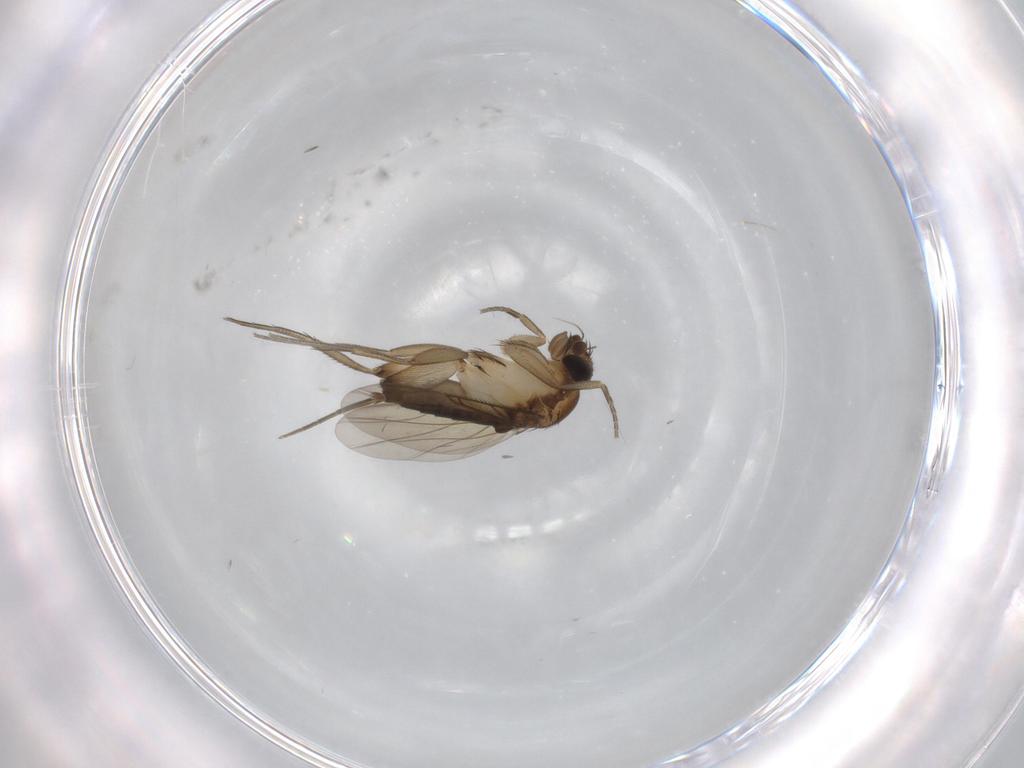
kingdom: Animalia
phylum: Arthropoda
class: Insecta
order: Diptera
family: Phoridae
